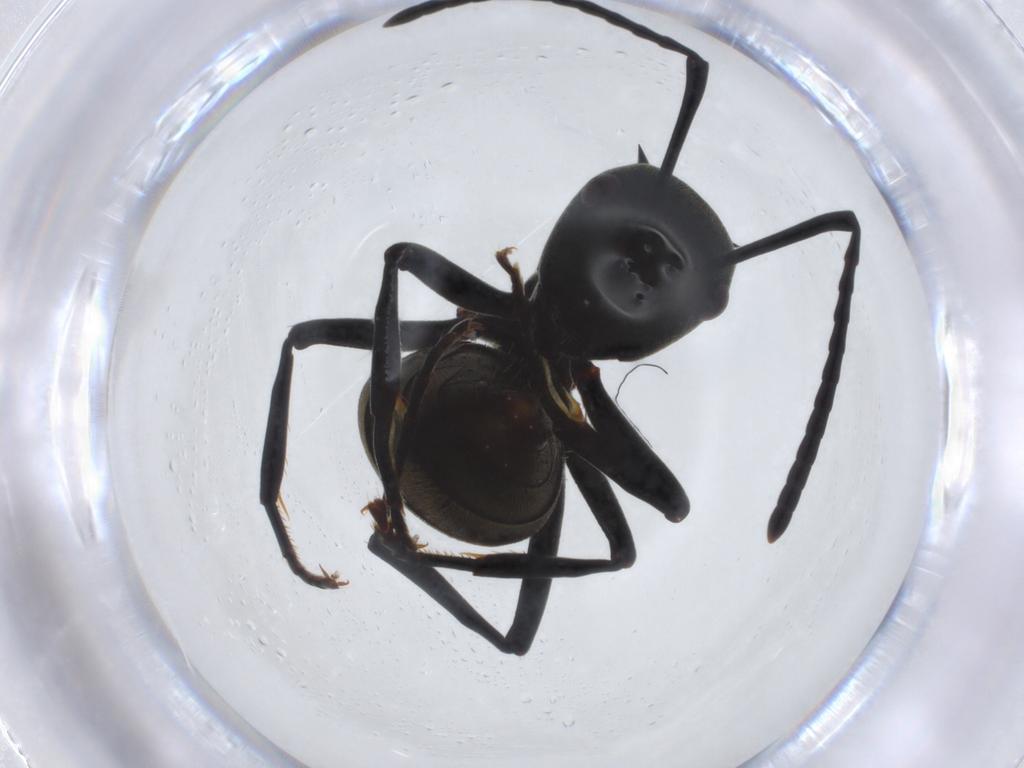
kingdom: Animalia
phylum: Arthropoda
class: Insecta
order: Hymenoptera
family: Formicidae
